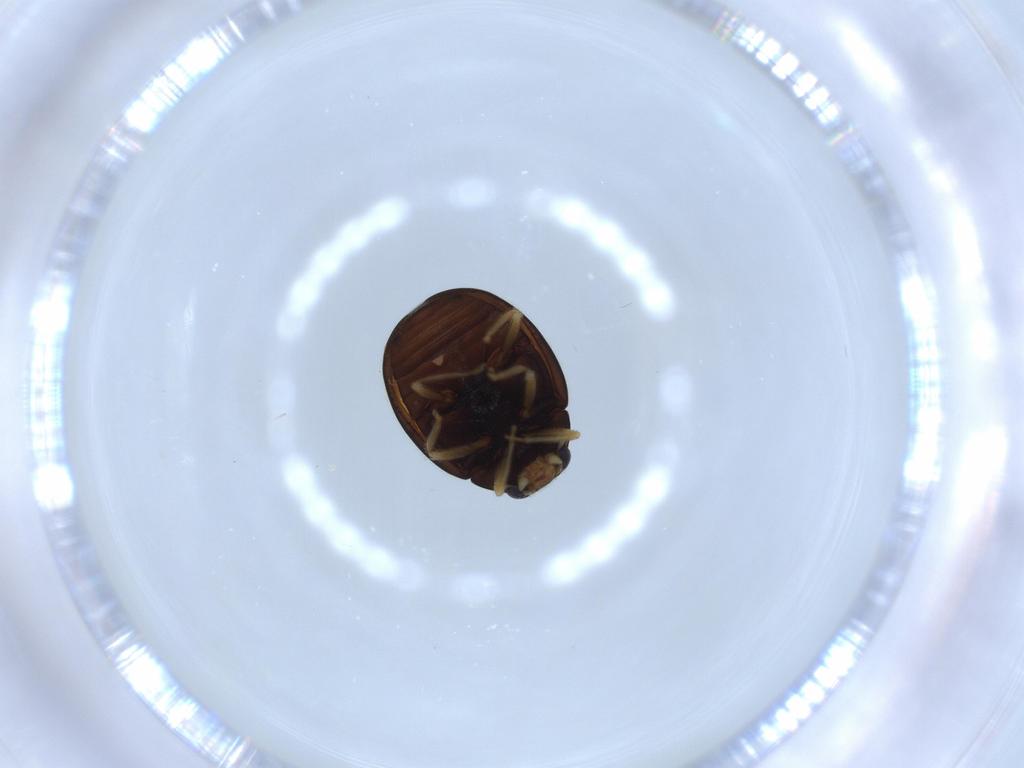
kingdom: Animalia
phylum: Arthropoda
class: Insecta
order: Coleoptera
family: Coccinellidae
